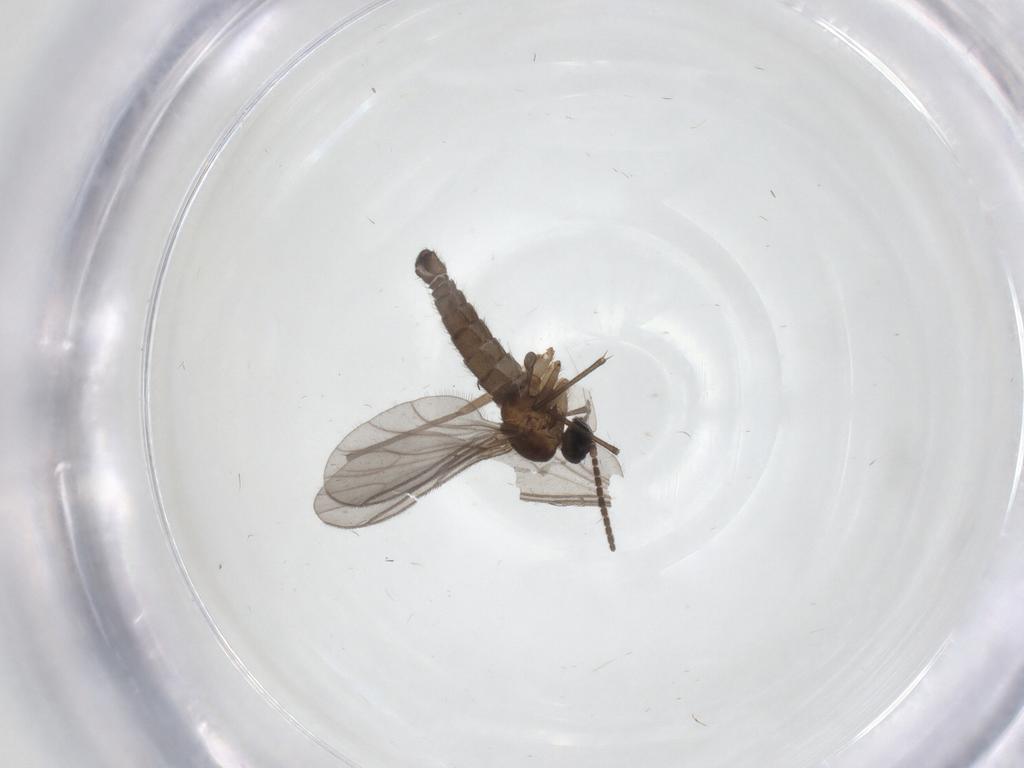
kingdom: Animalia
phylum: Arthropoda
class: Insecta
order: Diptera
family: Sciaridae
